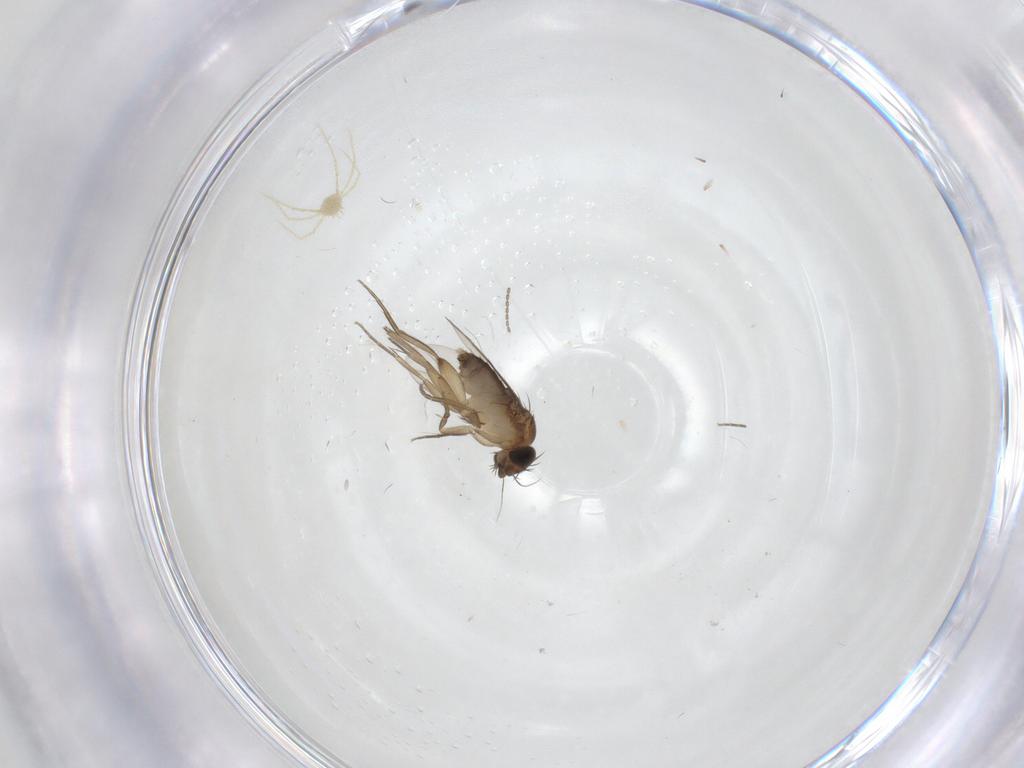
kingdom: Animalia
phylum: Arthropoda
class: Insecta
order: Diptera
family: Phoridae
